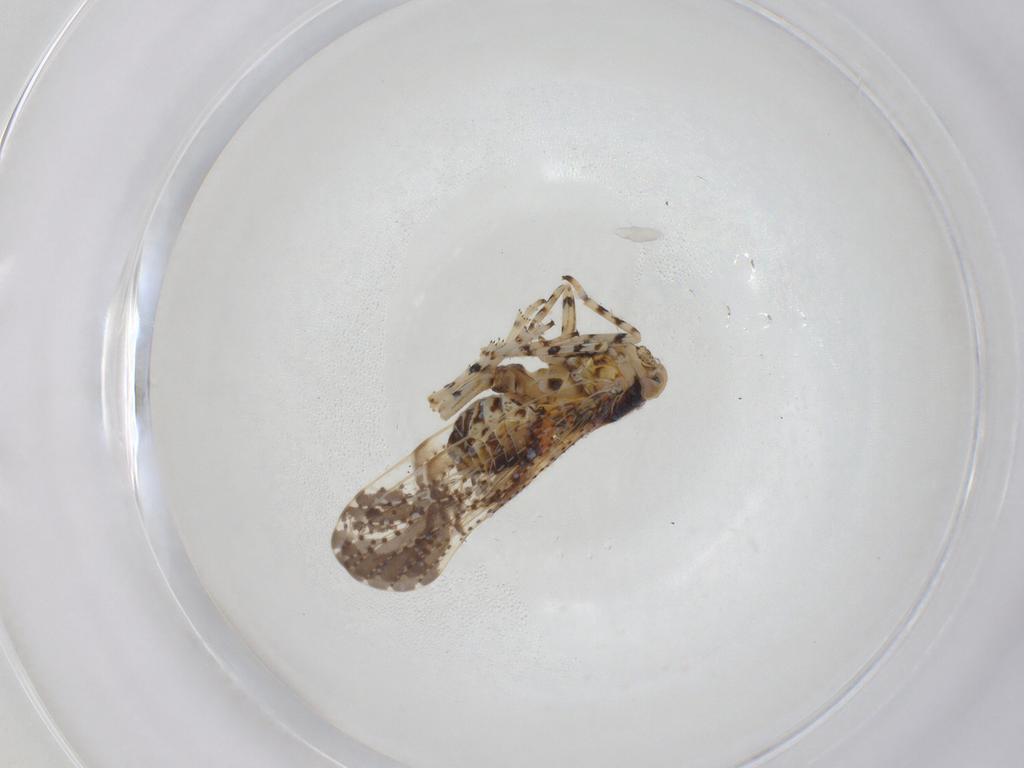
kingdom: Animalia
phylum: Arthropoda
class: Insecta
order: Hemiptera
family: Delphacidae
